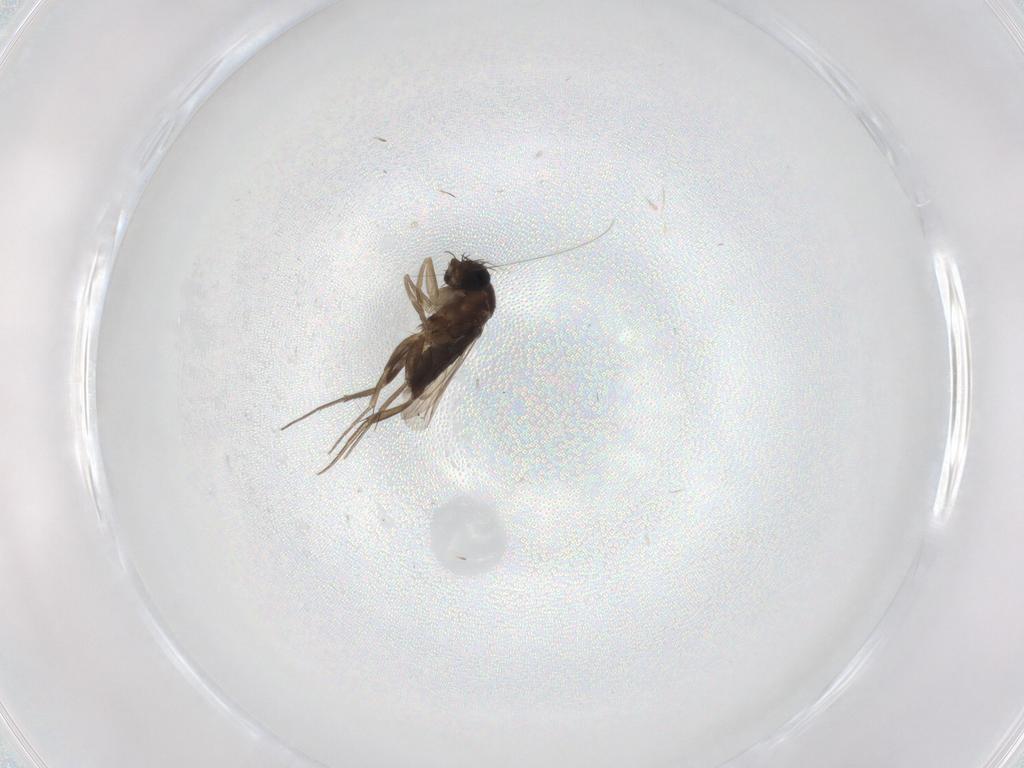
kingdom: Animalia
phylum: Arthropoda
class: Insecta
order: Diptera
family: Phoridae
